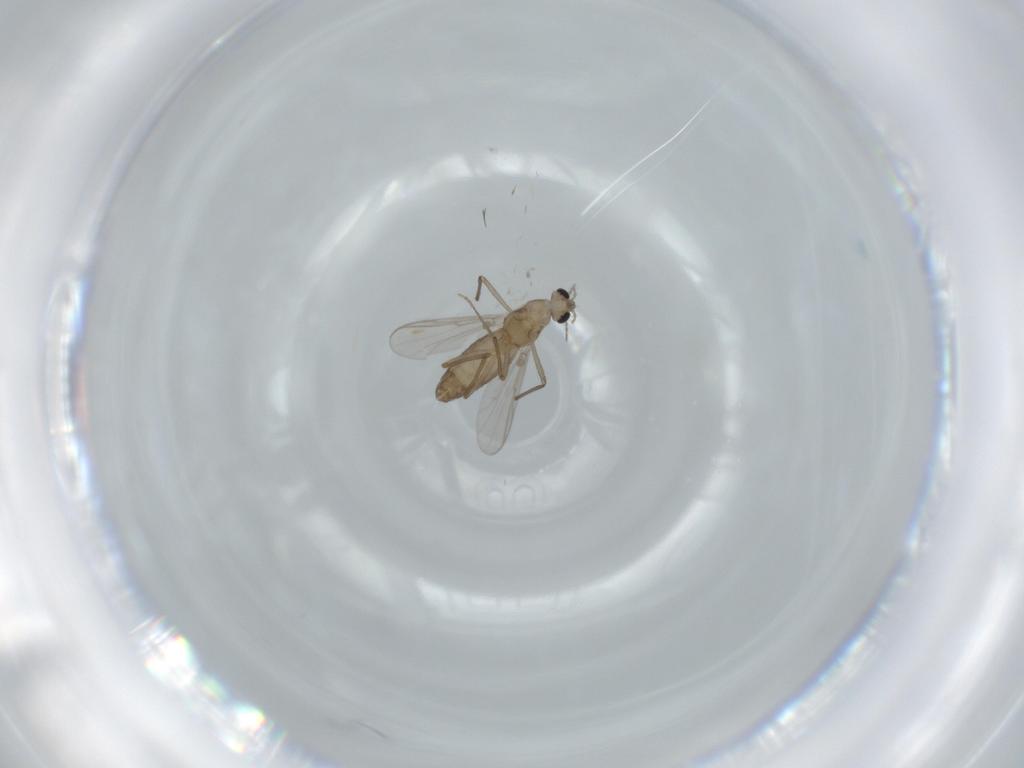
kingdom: Animalia
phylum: Arthropoda
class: Insecta
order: Diptera
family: Chironomidae
